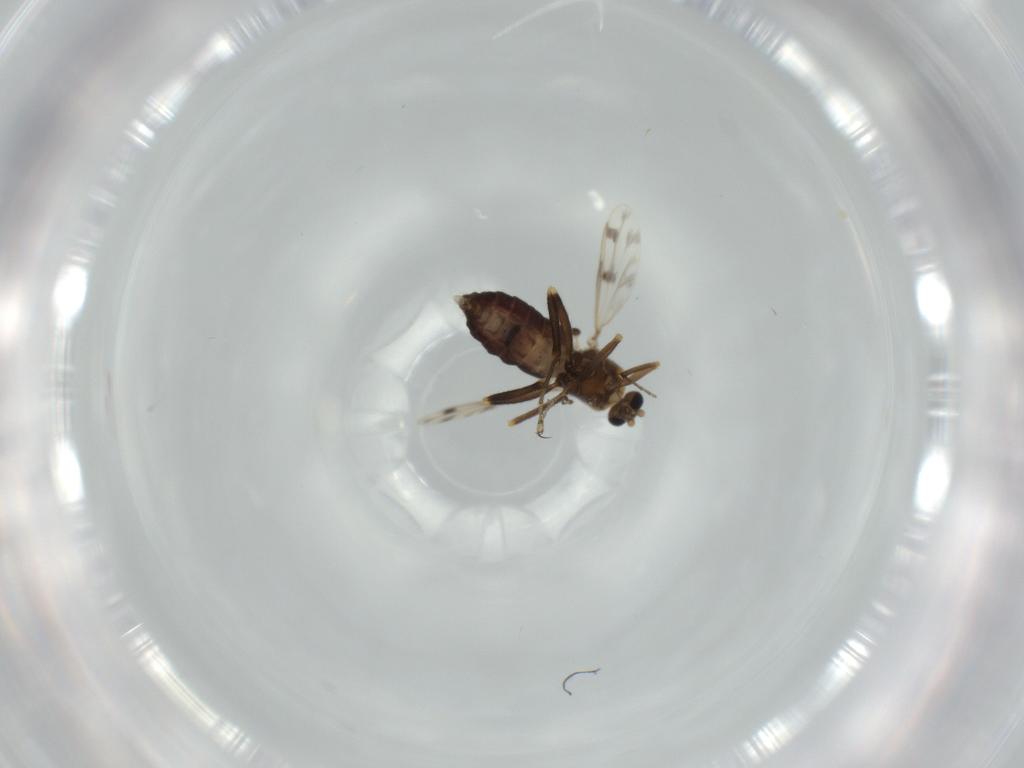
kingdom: Animalia
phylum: Arthropoda
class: Insecta
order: Diptera
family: Ceratopogonidae
